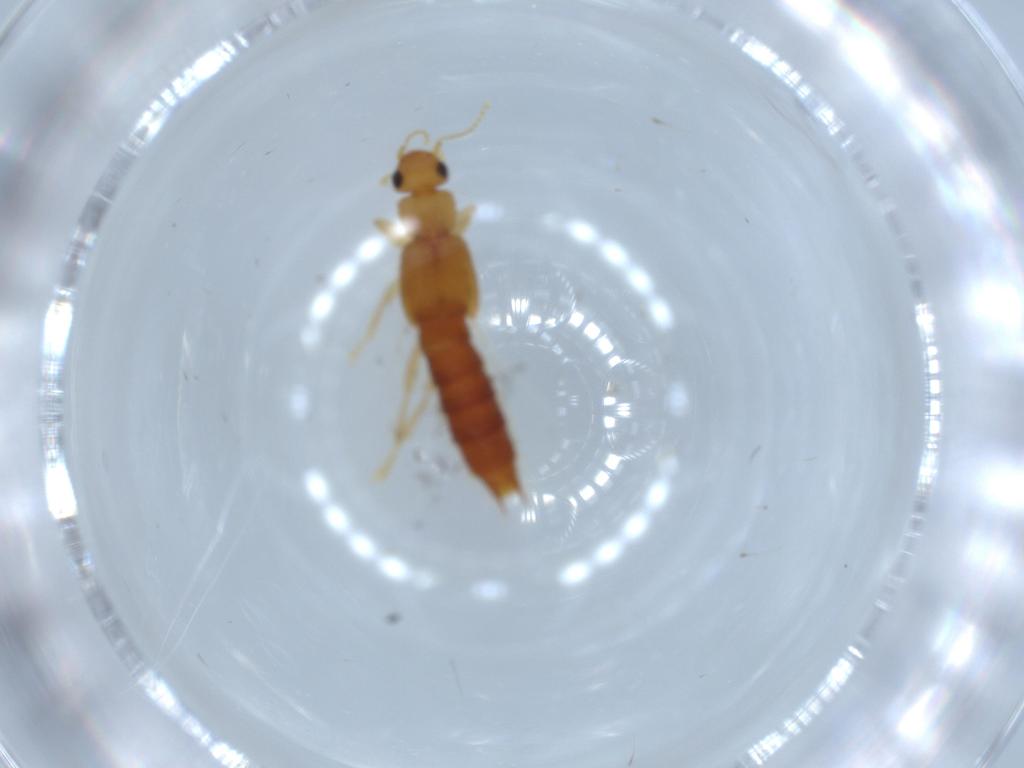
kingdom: Animalia
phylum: Arthropoda
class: Insecta
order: Coleoptera
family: Staphylinidae
